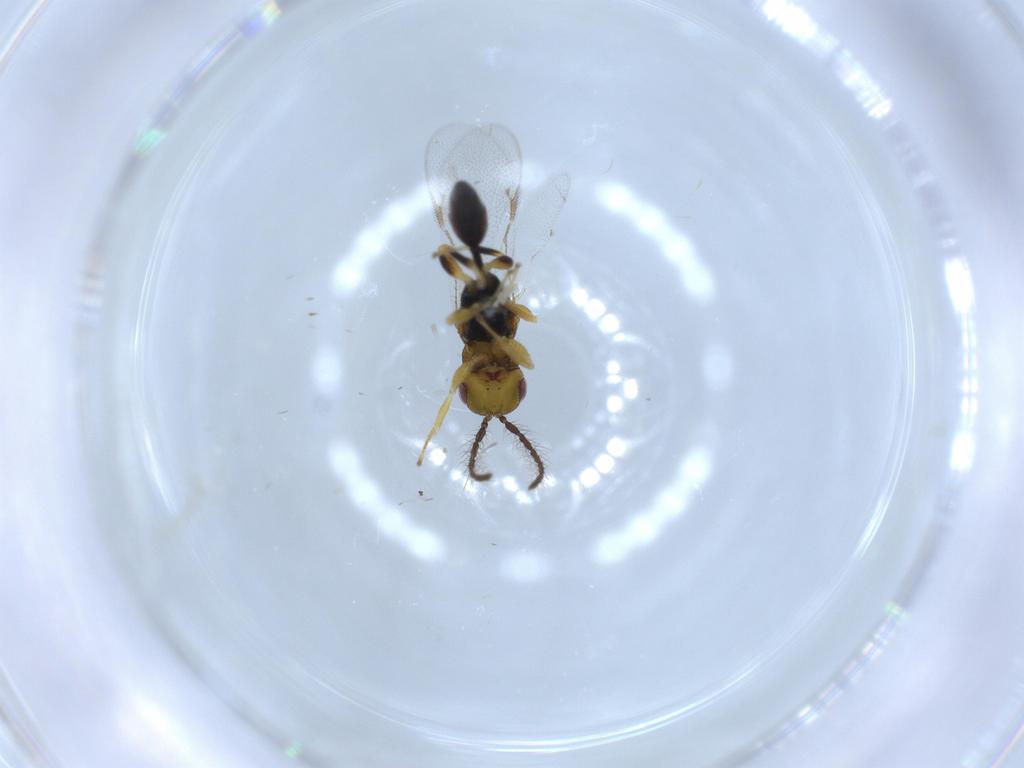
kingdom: Animalia
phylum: Arthropoda
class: Insecta
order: Hymenoptera
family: Eurytomidae
